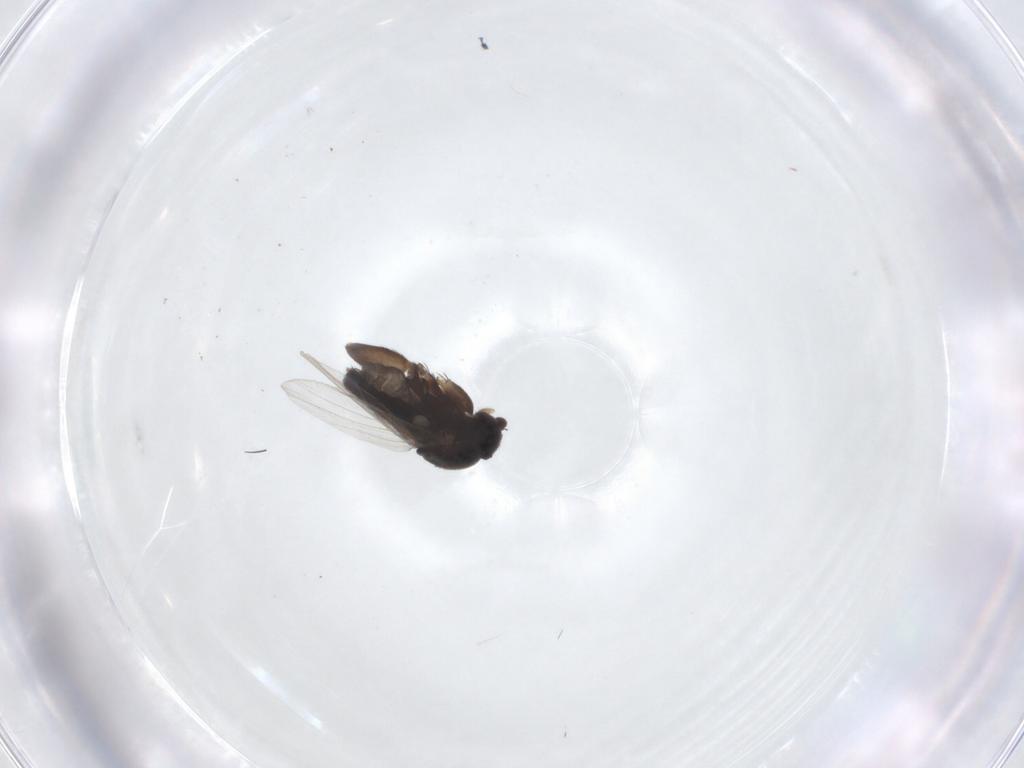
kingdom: Animalia
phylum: Arthropoda
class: Insecta
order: Diptera
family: Phoridae
